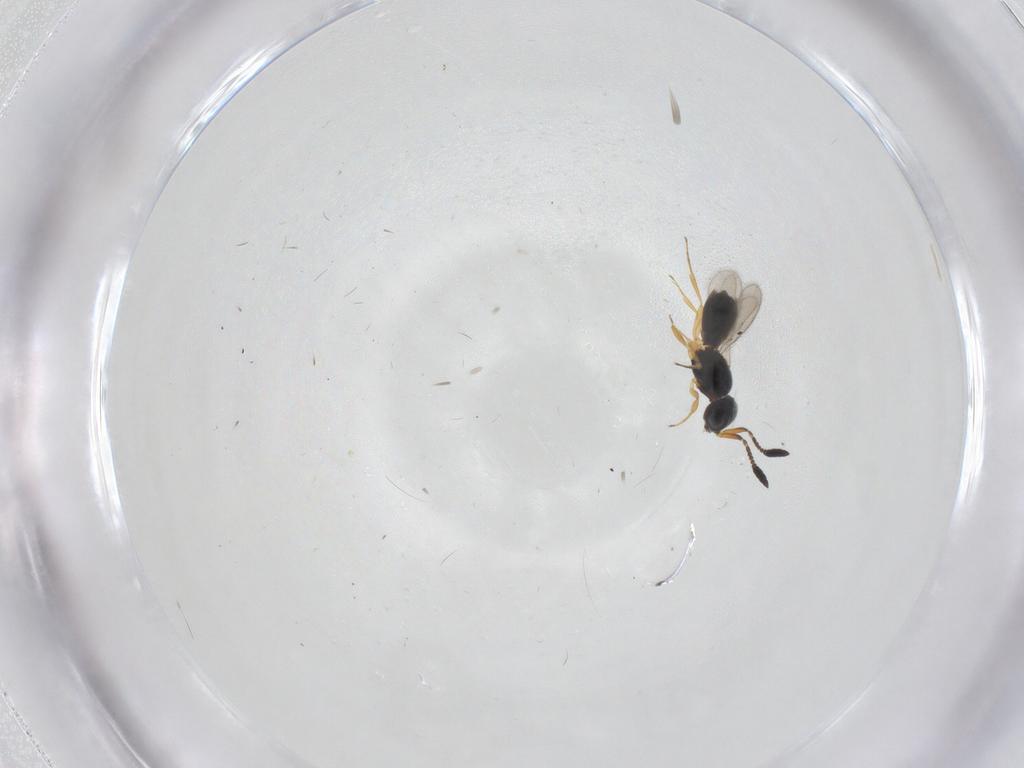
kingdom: Animalia
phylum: Arthropoda
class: Insecta
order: Hymenoptera
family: Scelionidae
